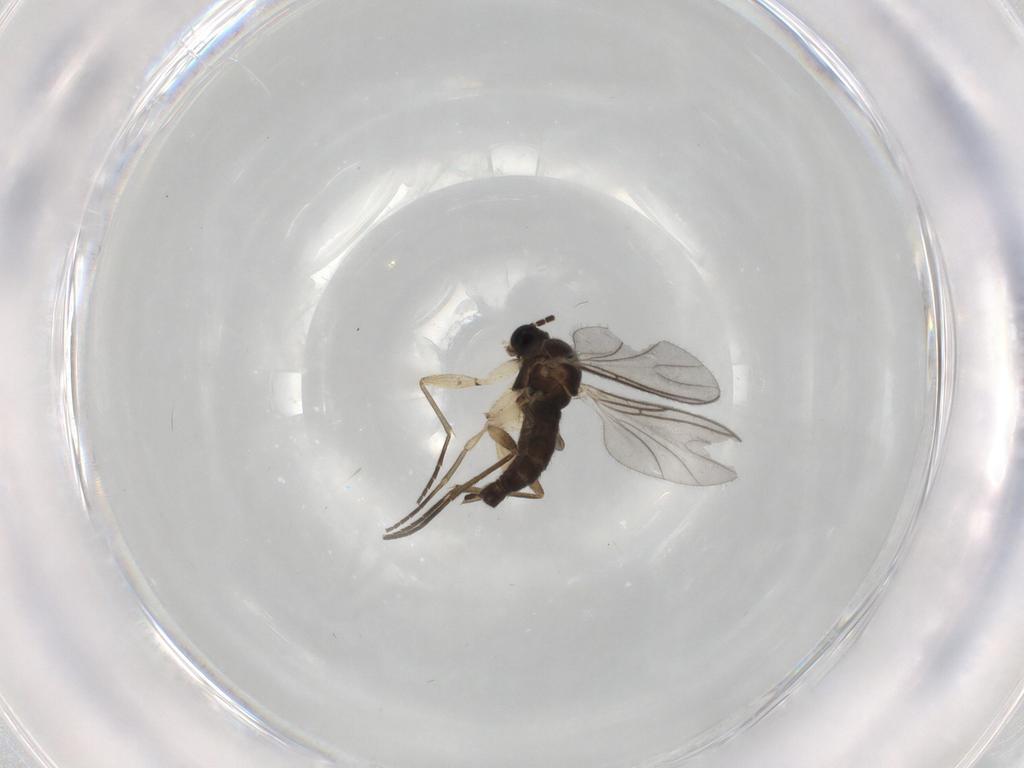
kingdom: Animalia
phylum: Arthropoda
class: Insecta
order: Diptera
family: Sciaridae
